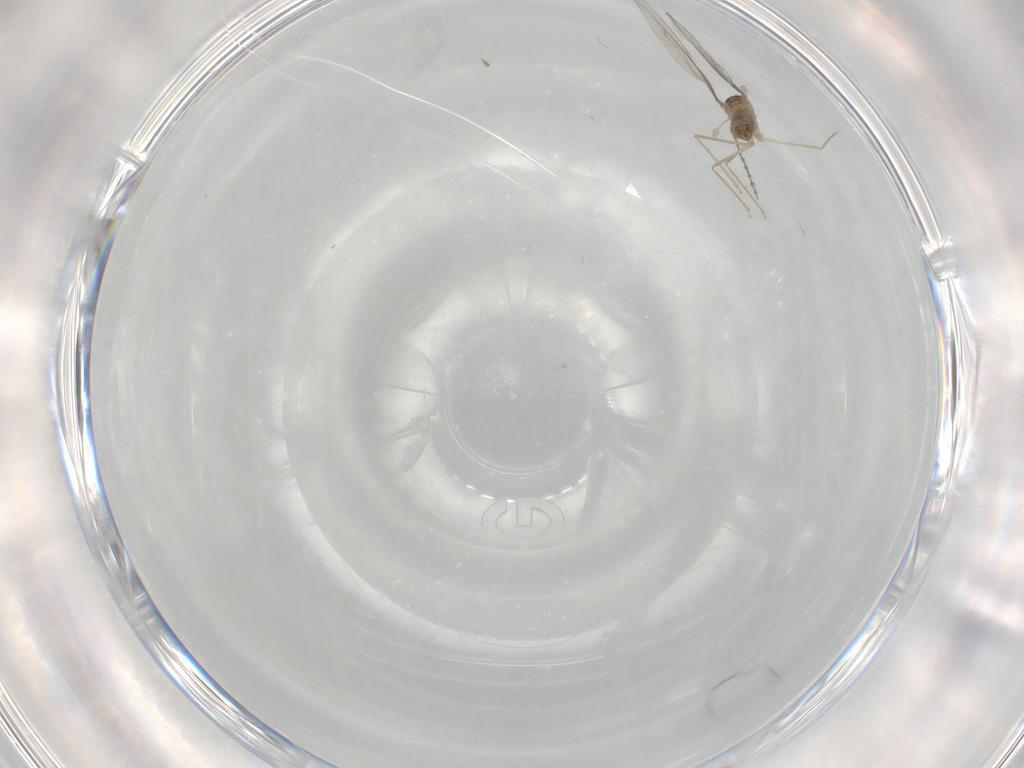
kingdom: Animalia
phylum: Arthropoda
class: Insecta
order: Diptera
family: Cecidomyiidae
